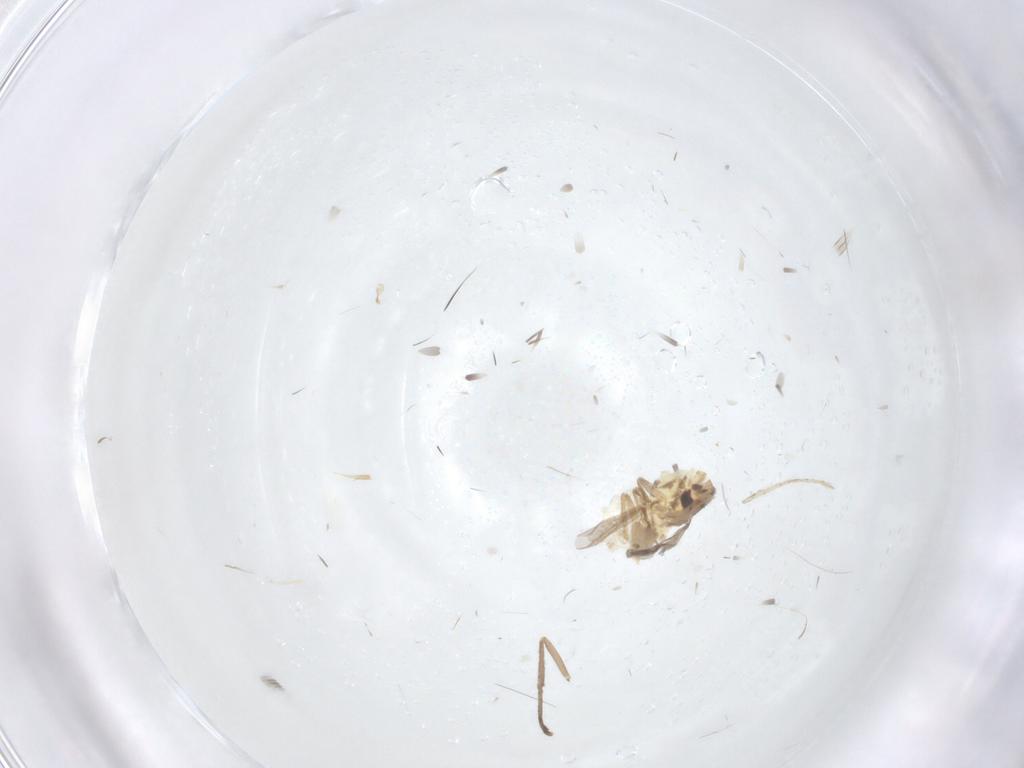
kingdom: Animalia
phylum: Arthropoda
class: Insecta
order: Diptera
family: Chironomidae
